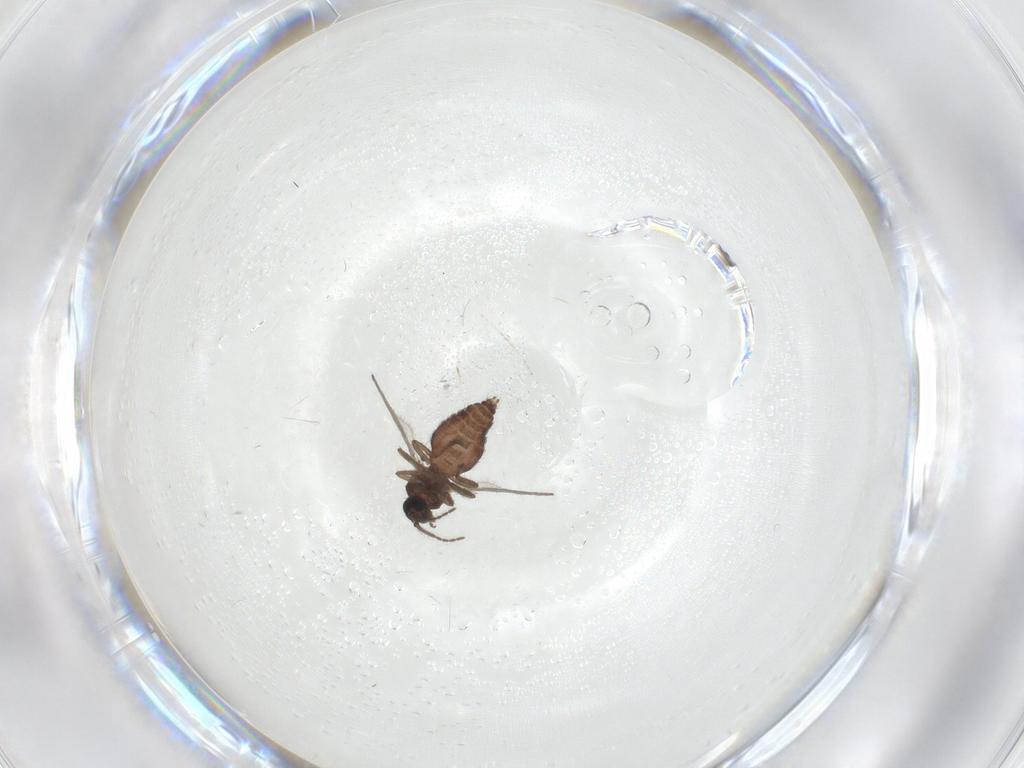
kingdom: Animalia
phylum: Arthropoda
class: Insecta
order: Diptera
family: Ceratopogonidae
